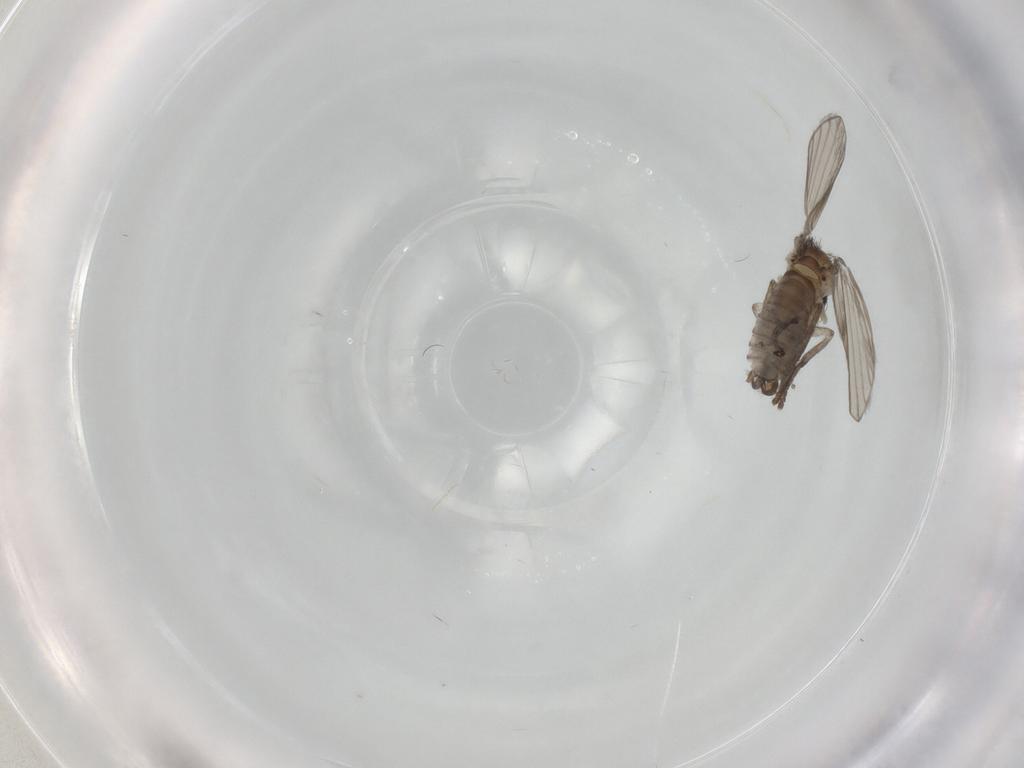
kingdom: Animalia
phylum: Arthropoda
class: Insecta
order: Diptera
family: Psychodidae
